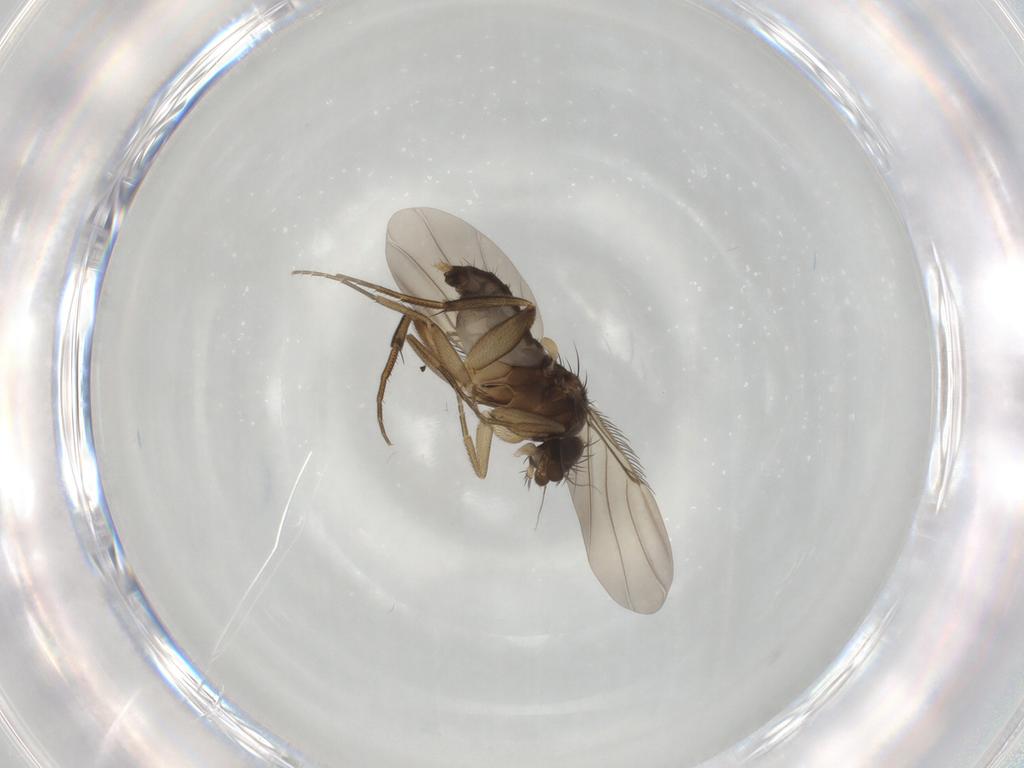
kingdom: Animalia
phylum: Arthropoda
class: Insecta
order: Diptera
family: Phoridae
